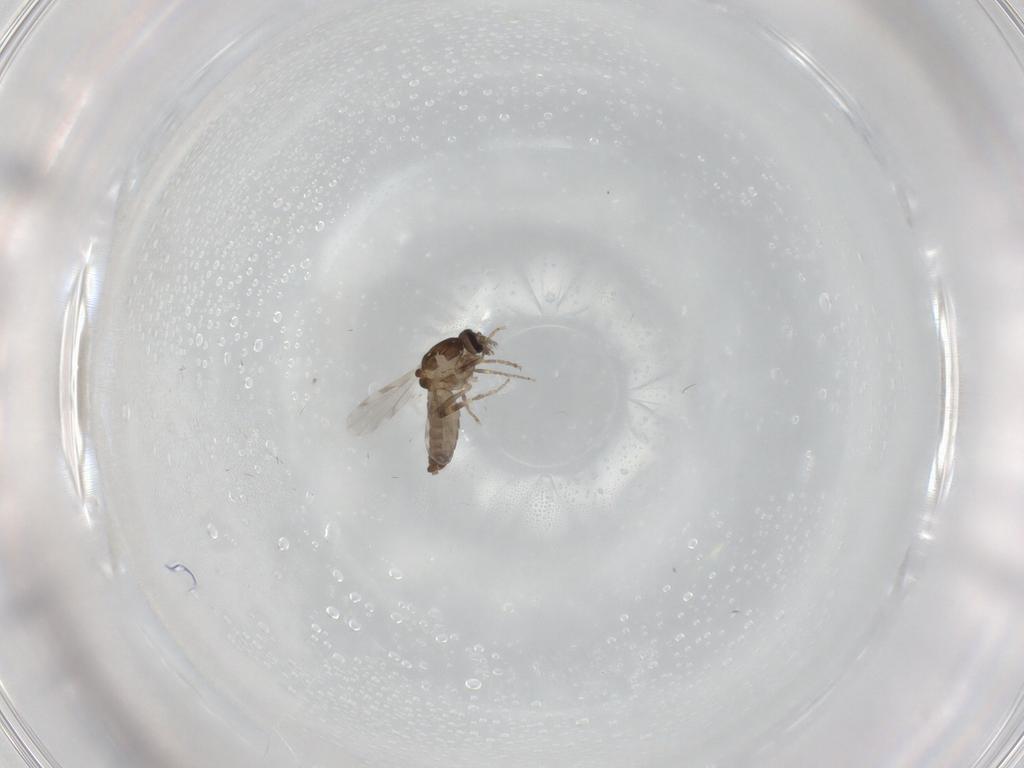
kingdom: Animalia
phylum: Arthropoda
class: Insecta
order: Diptera
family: Ceratopogonidae
